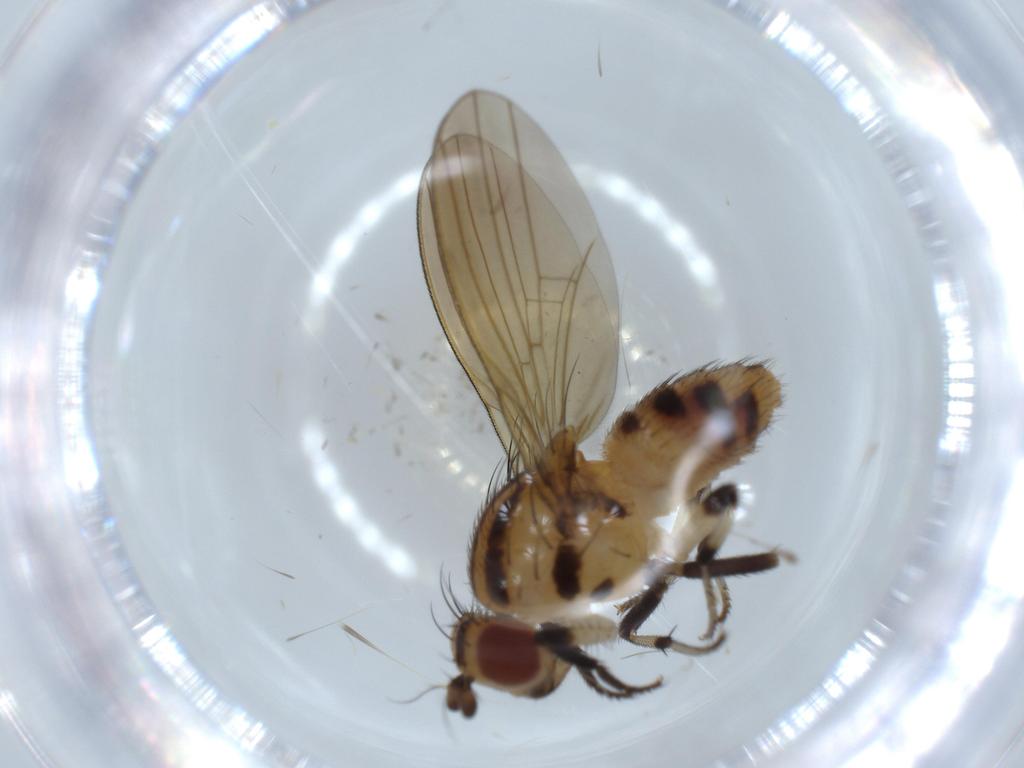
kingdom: Animalia
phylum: Arthropoda
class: Insecta
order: Diptera
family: Lauxaniidae
